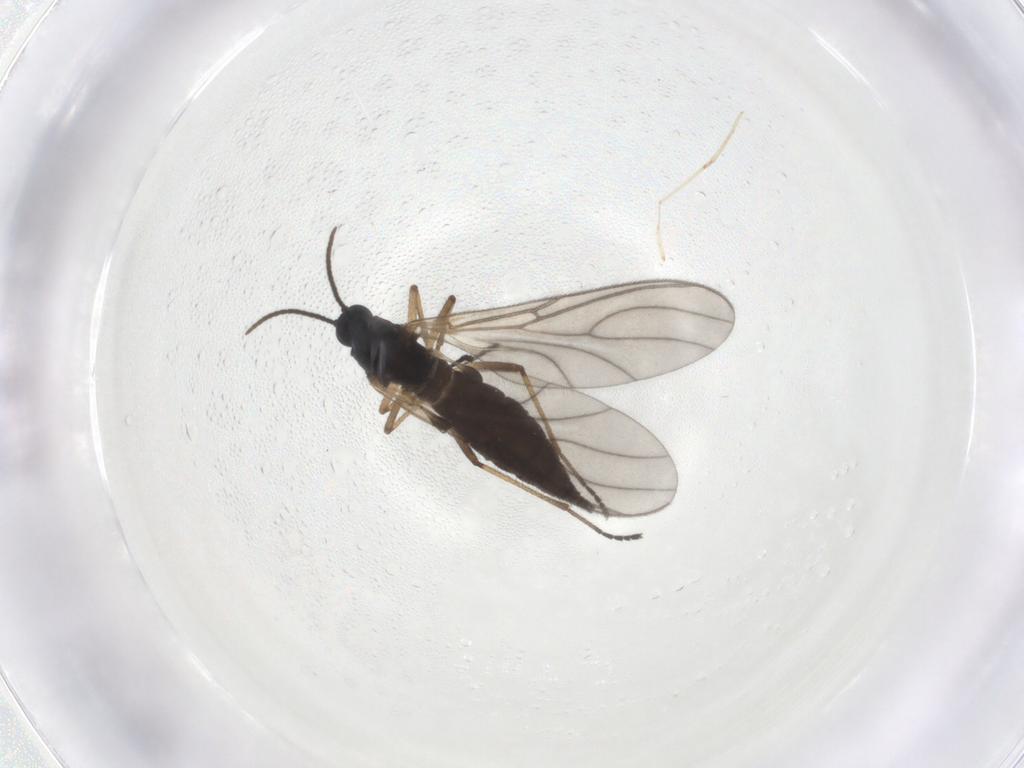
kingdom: Animalia
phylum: Arthropoda
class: Insecta
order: Diptera
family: Sciaridae
